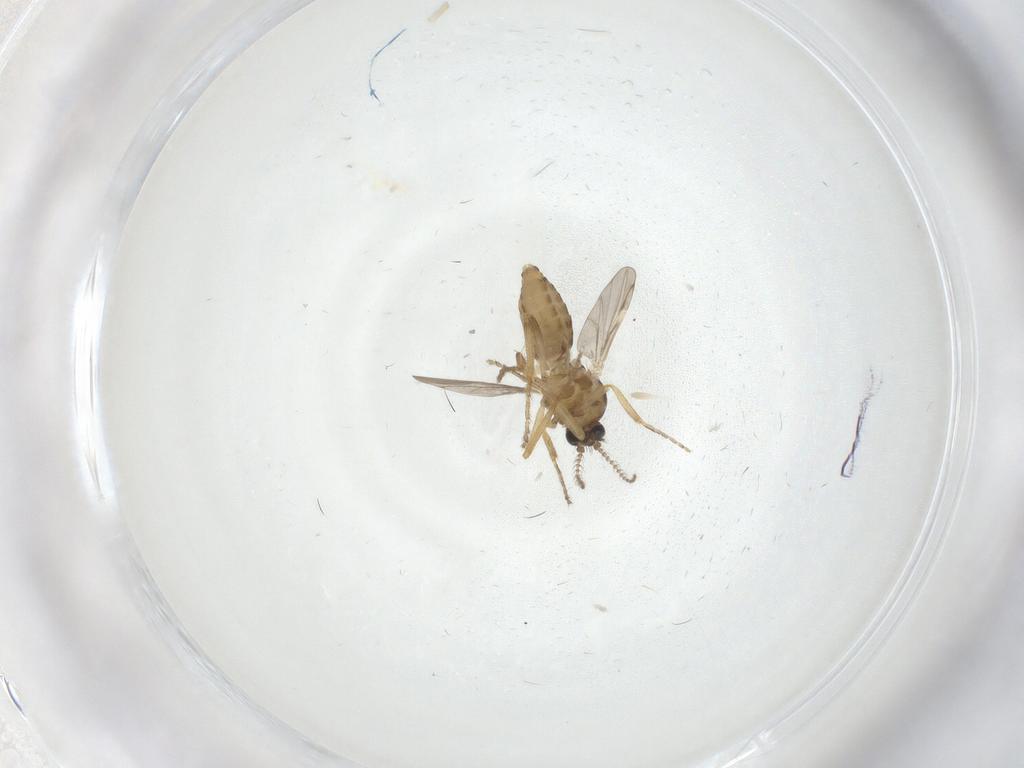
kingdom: Animalia
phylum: Arthropoda
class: Insecta
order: Diptera
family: Ceratopogonidae
